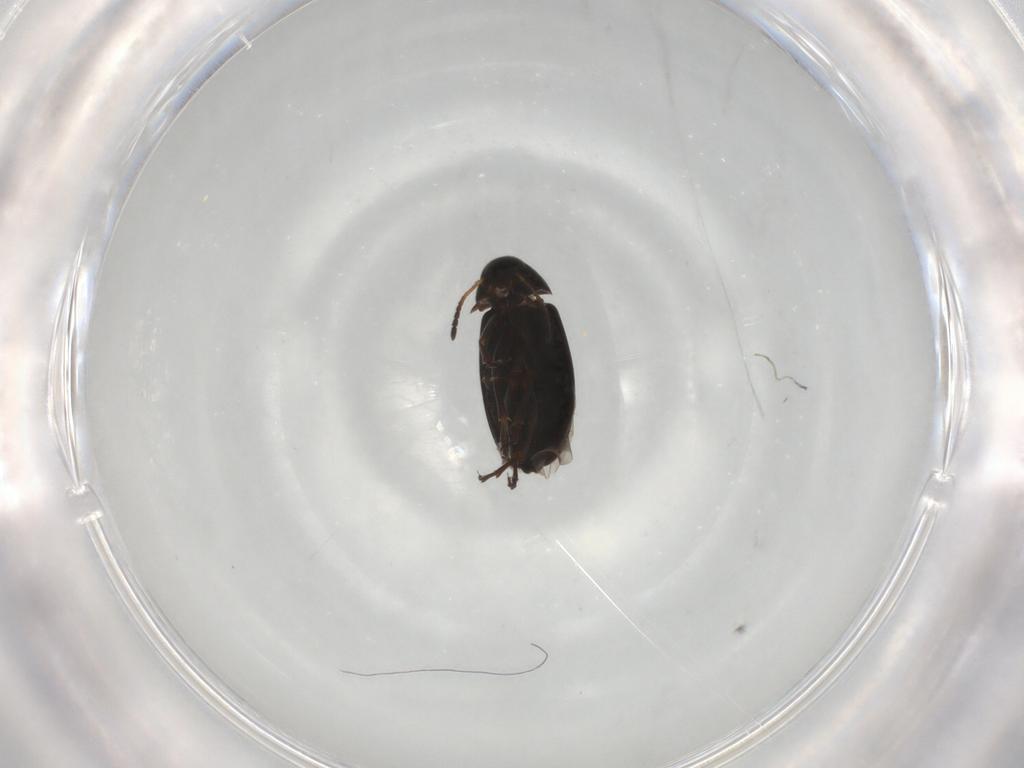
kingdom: Animalia
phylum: Arthropoda
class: Insecta
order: Coleoptera
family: Scraptiidae
